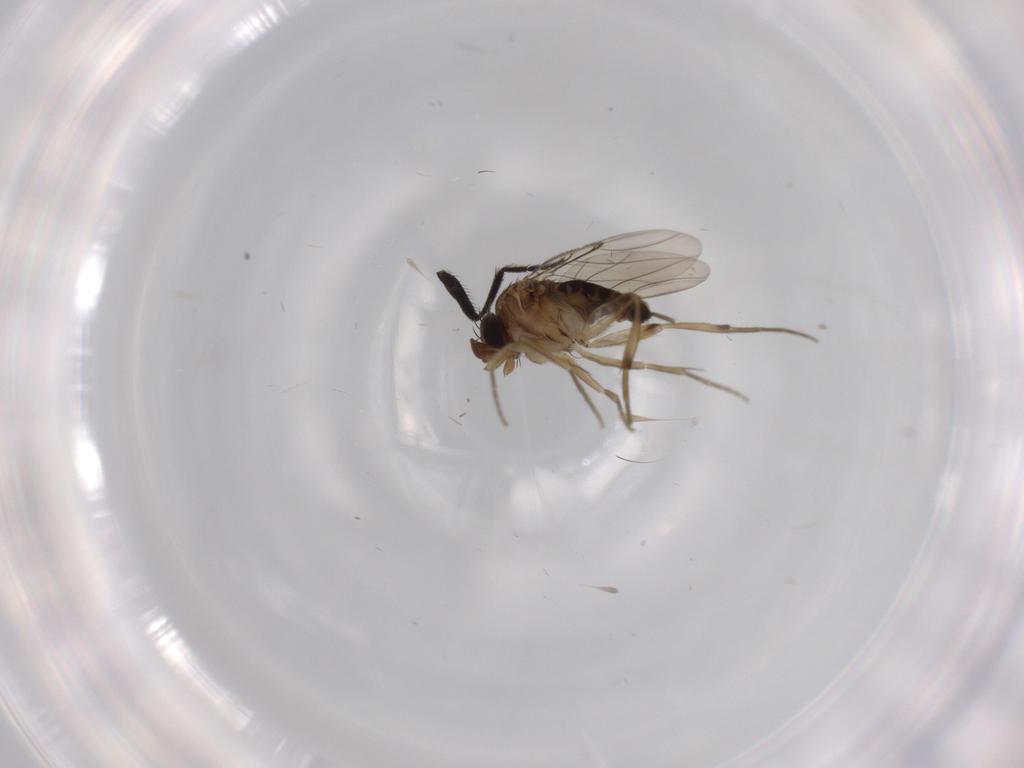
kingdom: Animalia
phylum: Arthropoda
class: Insecta
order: Diptera
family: Phoridae
